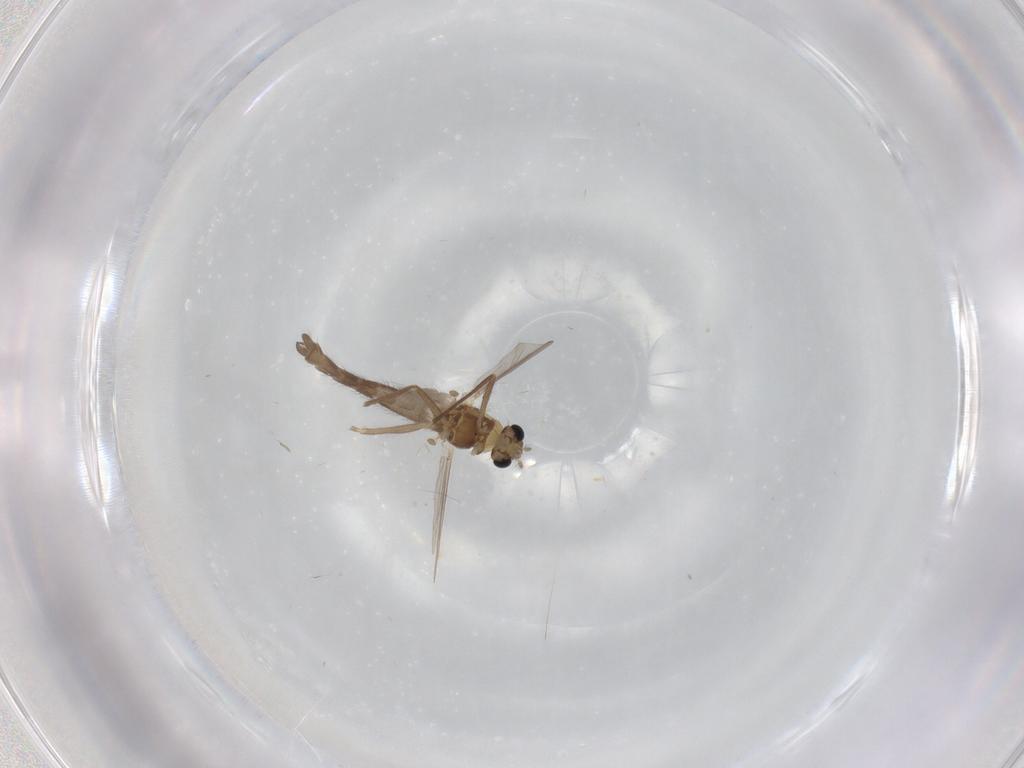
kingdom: Animalia
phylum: Arthropoda
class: Insecta
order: Diptera
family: Chironomidae
